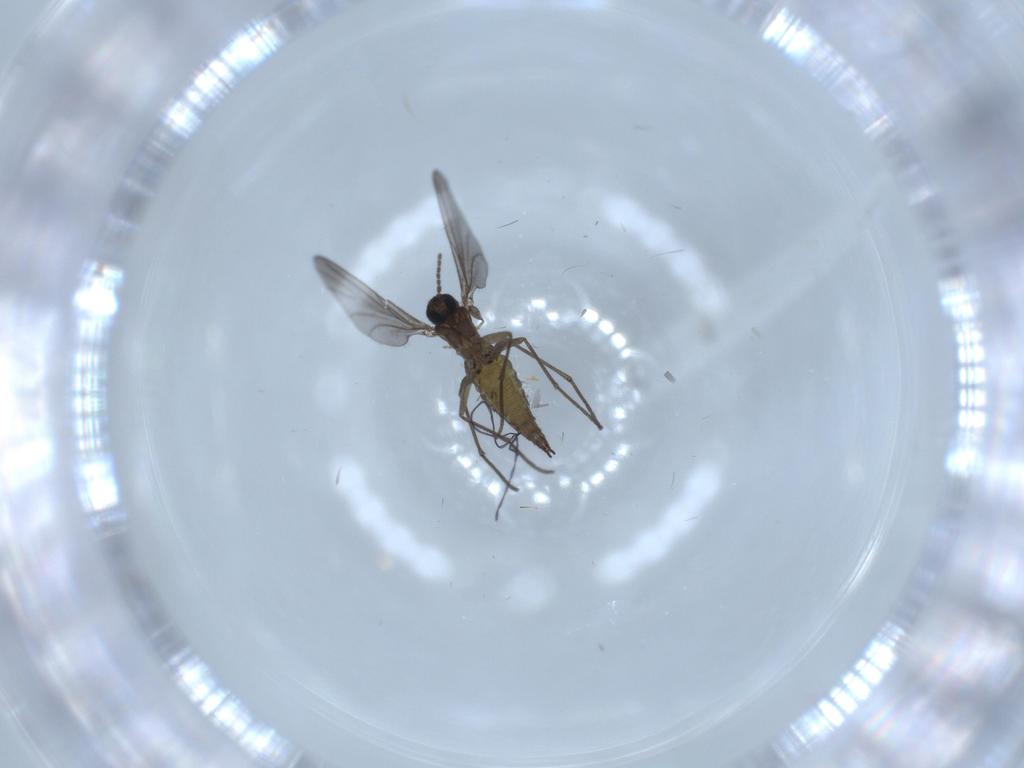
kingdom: Animalia
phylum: Arthropoda
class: Insecta
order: Diptera
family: Sciaridae
